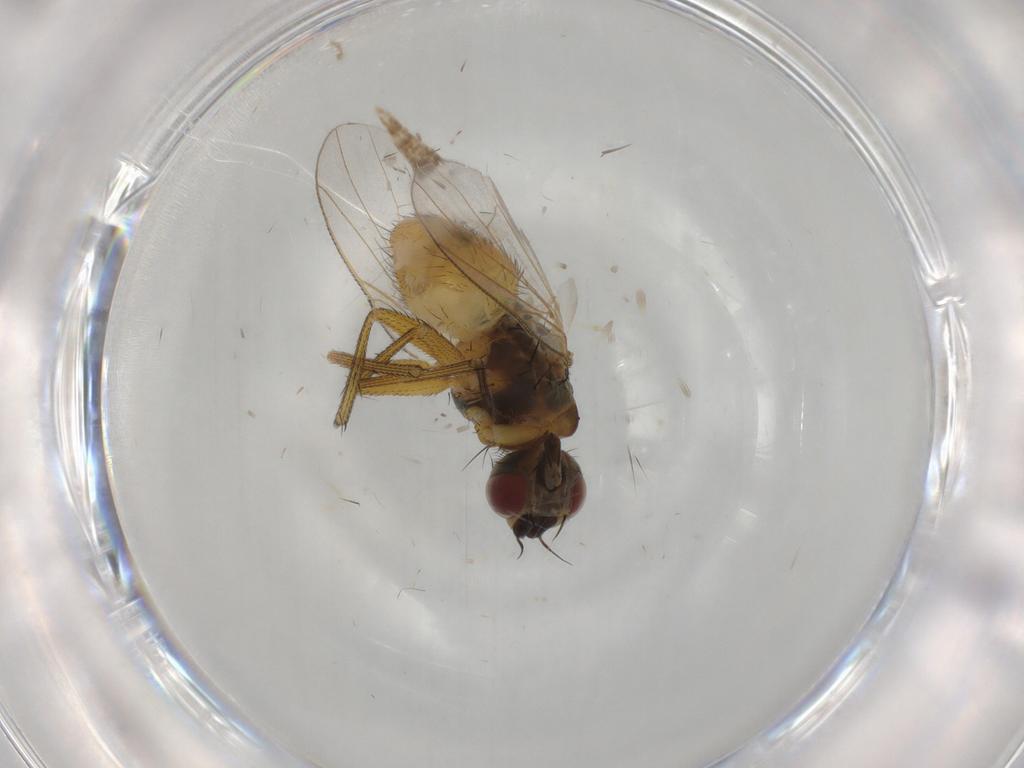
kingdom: Animalia
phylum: Arthropoda
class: Insecta
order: Diptera
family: Muscidae
